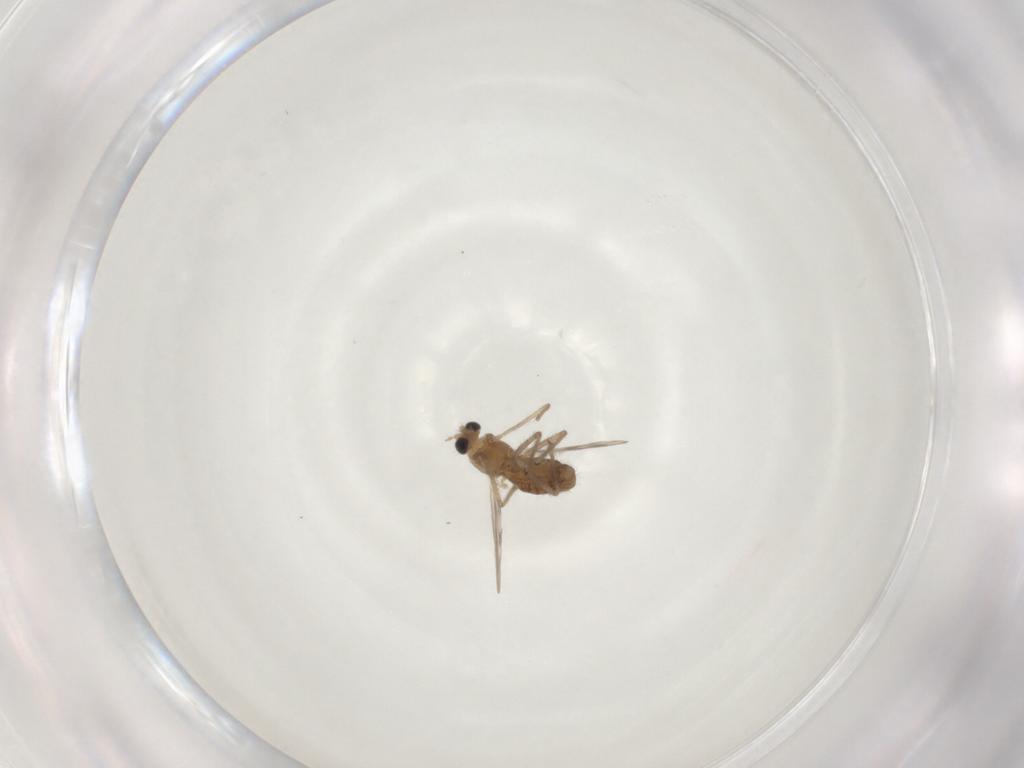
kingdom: Animalia
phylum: Arthropoda
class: Insecta
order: Diptera
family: Chironomidae
